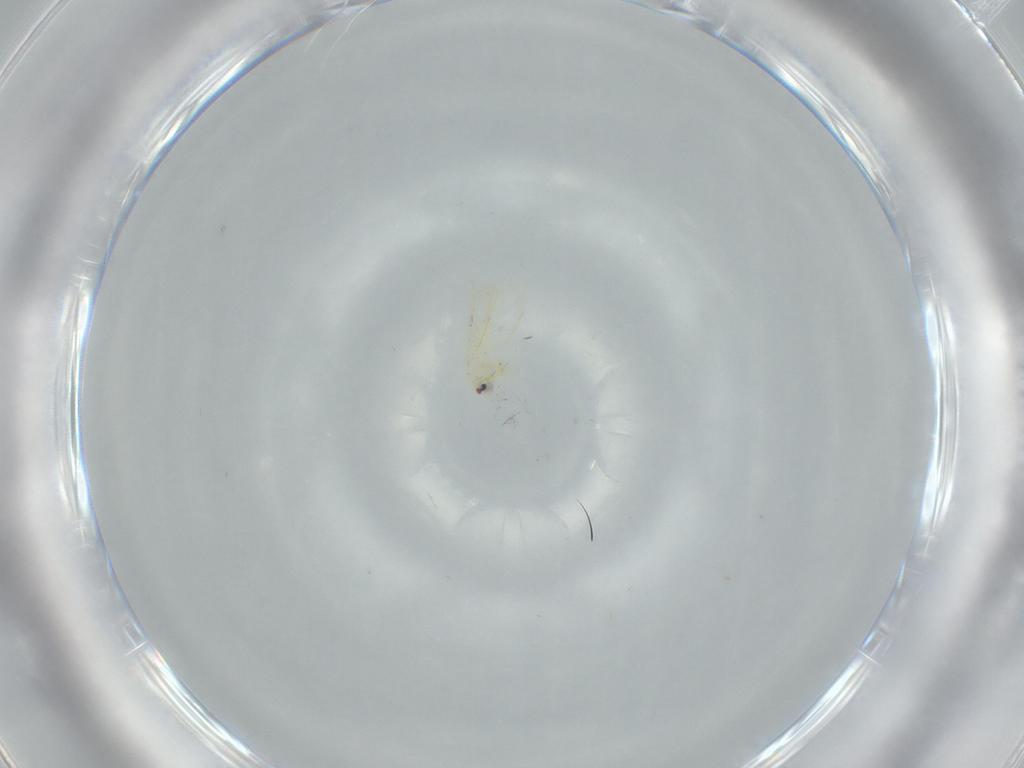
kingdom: Animalia
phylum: Arthropoda
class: Insecta
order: Hemiptera
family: Aleyrodidae
